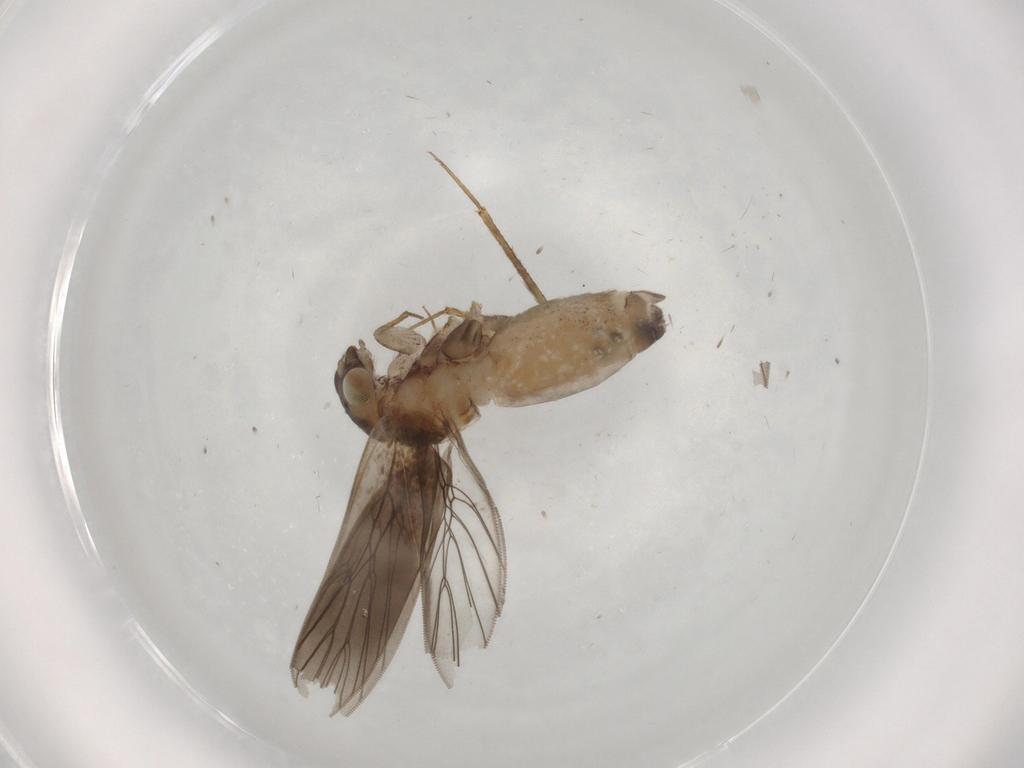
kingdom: Animalia
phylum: Arthropoda
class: Insecta
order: Psocodea
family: Lepidopsocidae
